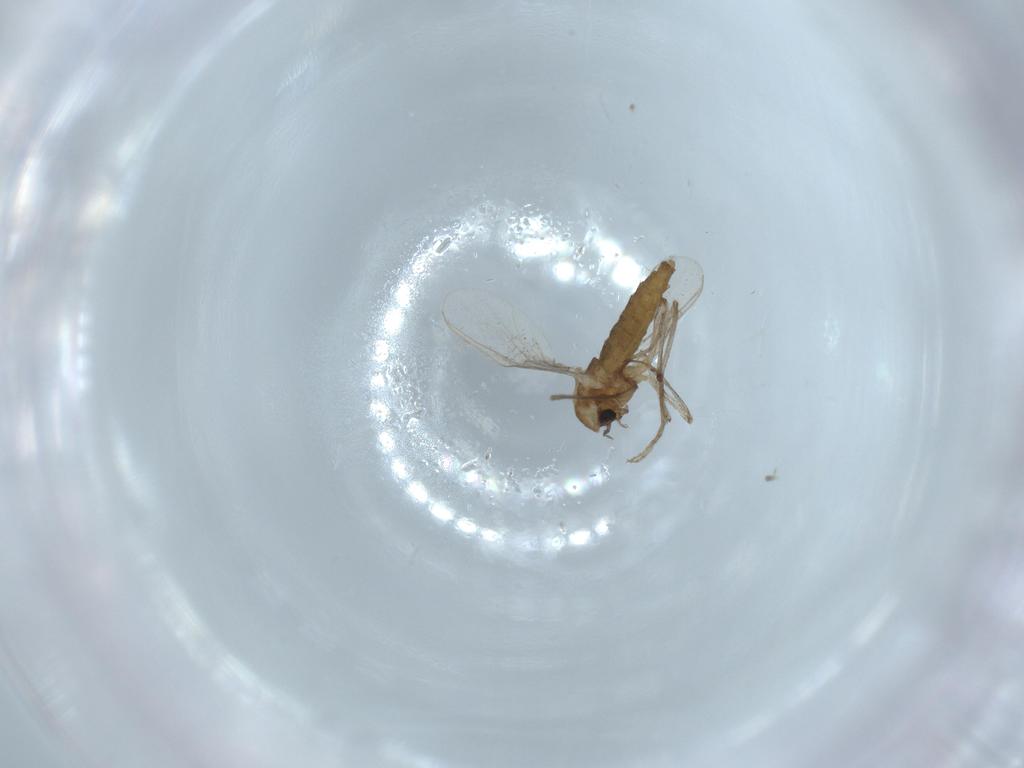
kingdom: Animalia
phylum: Arthropoda
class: Insecta
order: Diptera
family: Chironomidae
